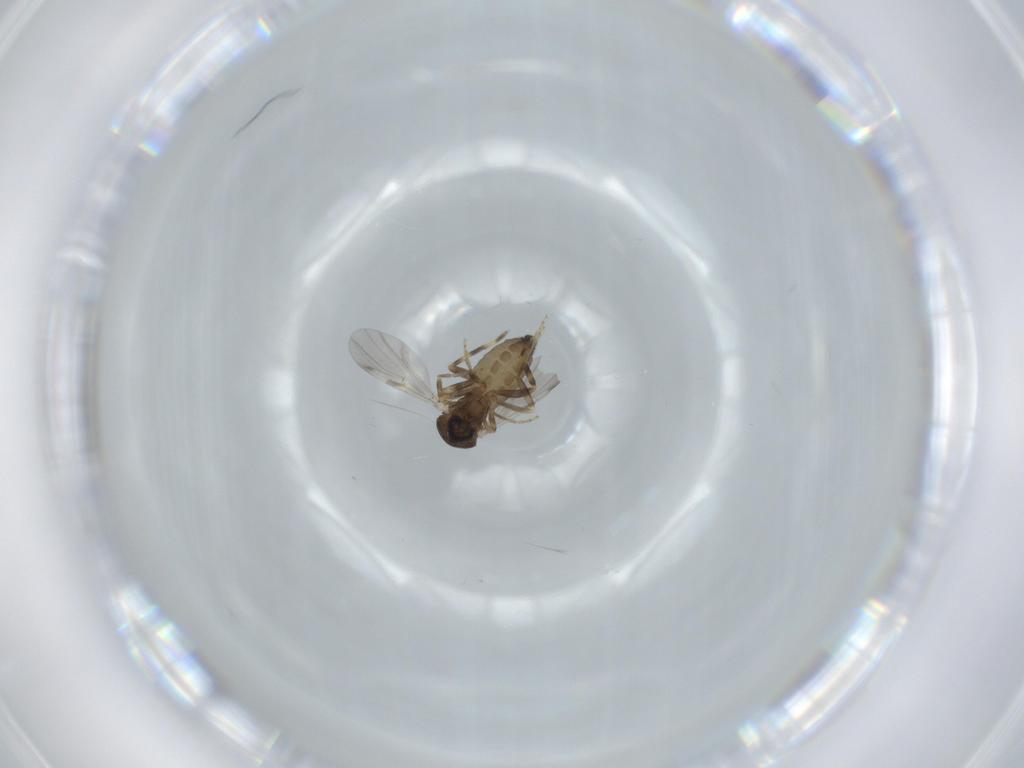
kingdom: Animalia
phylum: Arthropoda
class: Insecta
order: Diptera
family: Ceratopogonidae
